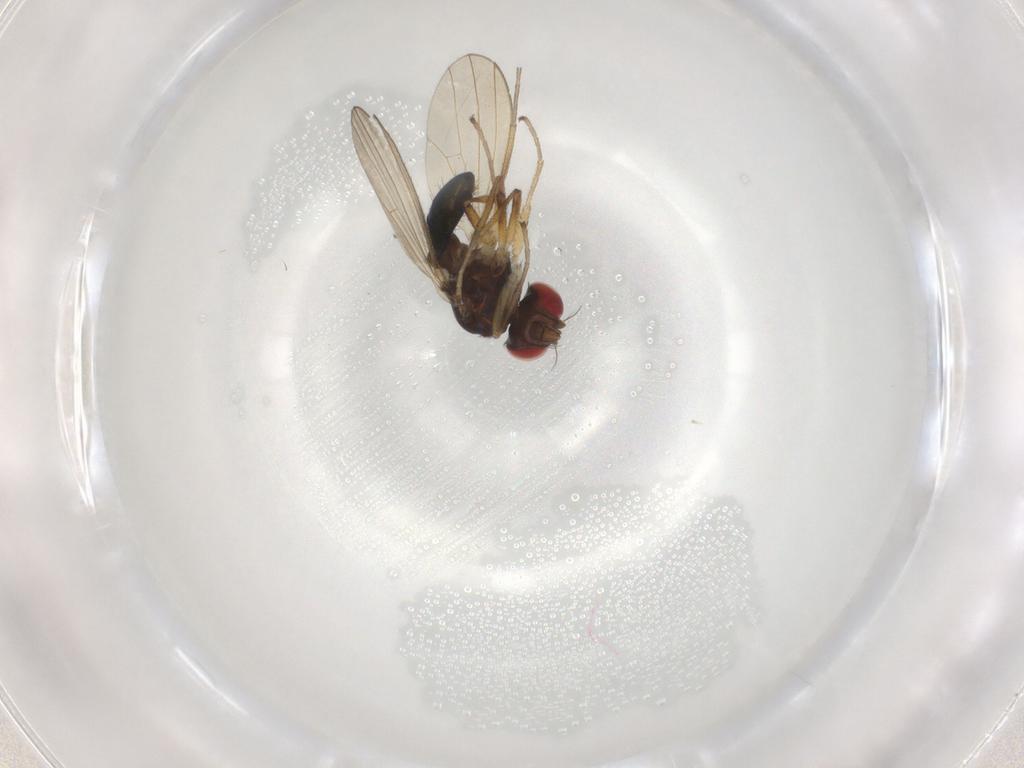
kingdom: Animalia
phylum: Arthropoda
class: Insecta
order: Diptera
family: Camillidae
